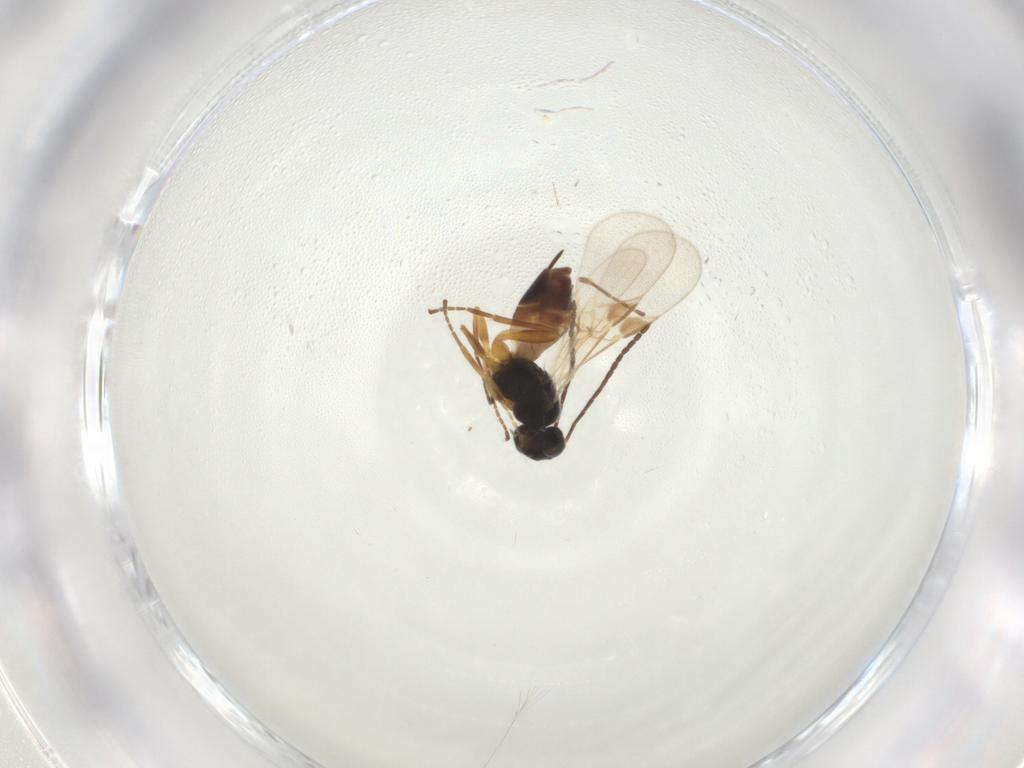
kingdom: Animalia
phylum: Arthropoda
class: Insecta
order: Hymenoptera
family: Braconidae
